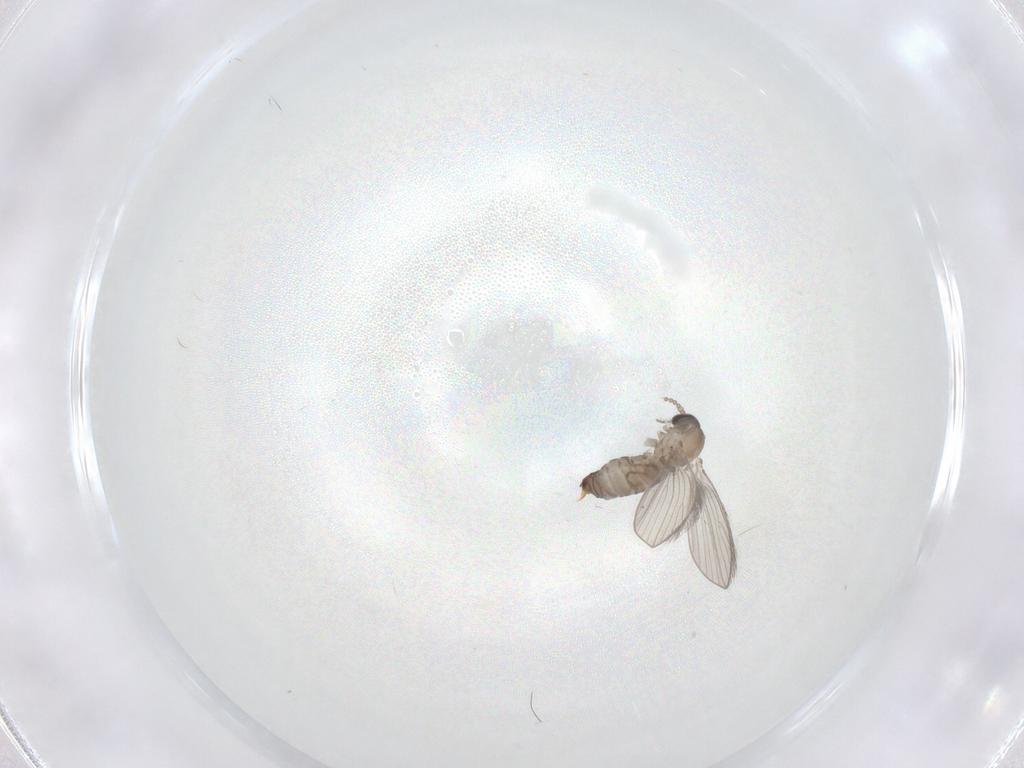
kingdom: Animalia
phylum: Arthropoda
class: Insecta
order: Diptera
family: Psychodidae
